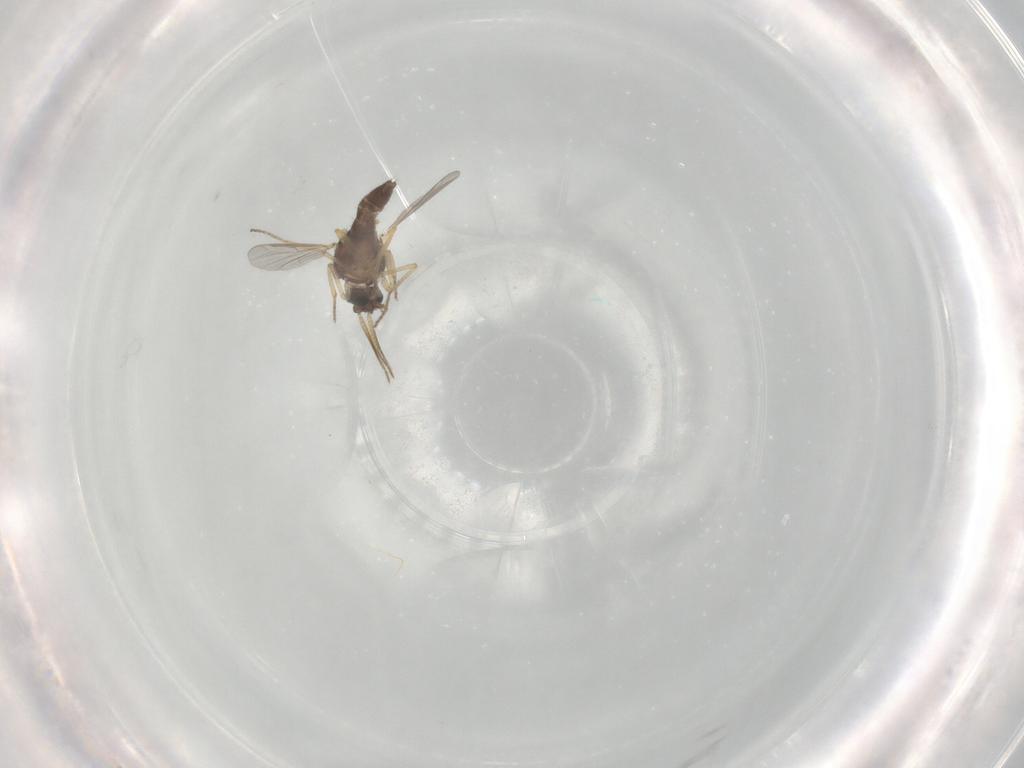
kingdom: Animalia
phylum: Arthropoda
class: Insecta
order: Diptera
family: Ceratopogonidae
